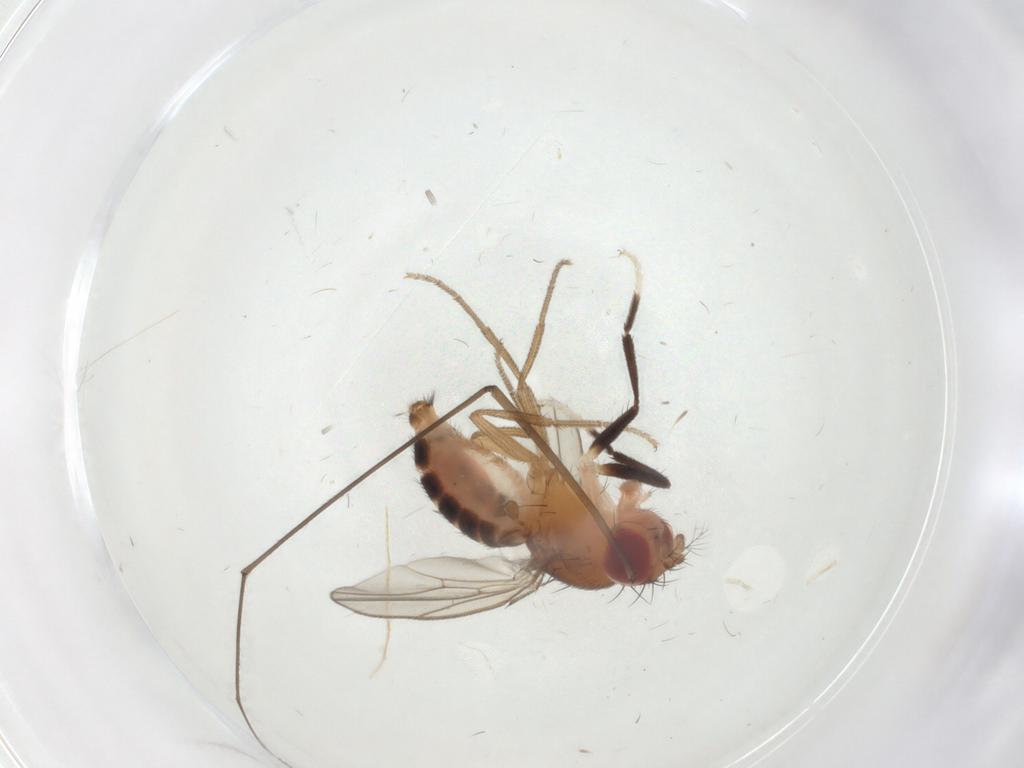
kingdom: Animalia
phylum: Arthropoda
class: Insecta
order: Diptera
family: Drosophilidae
